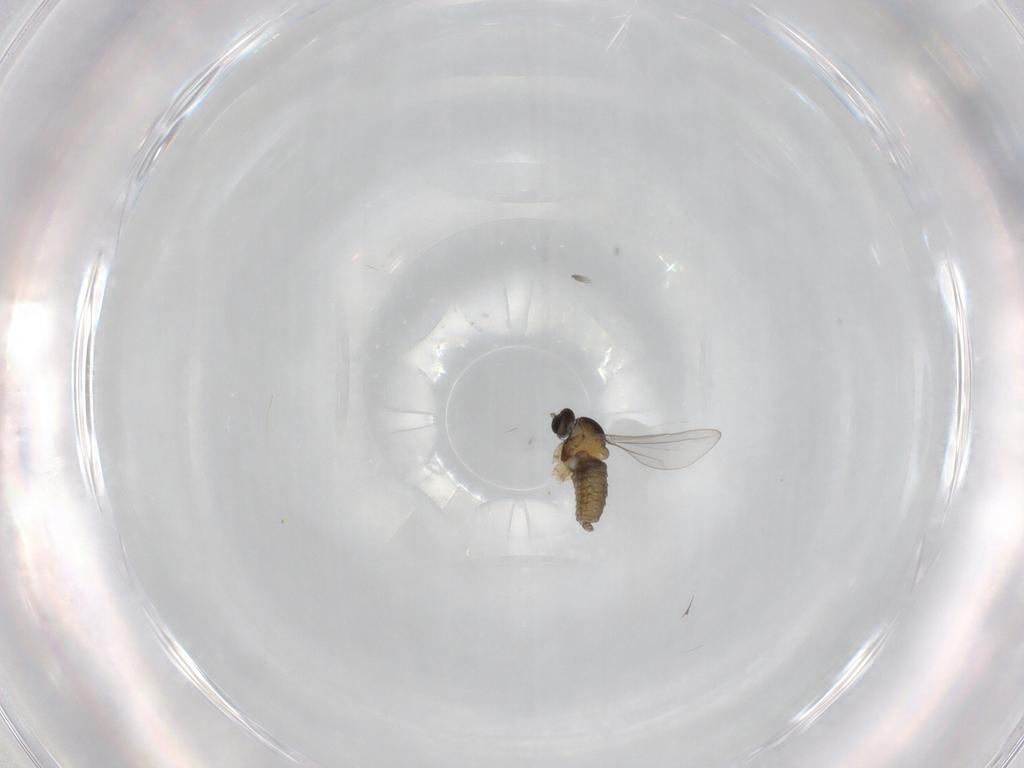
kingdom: Animalia
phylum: Arthropoda
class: Insecta
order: Diptera
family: Cecidomyiidae
